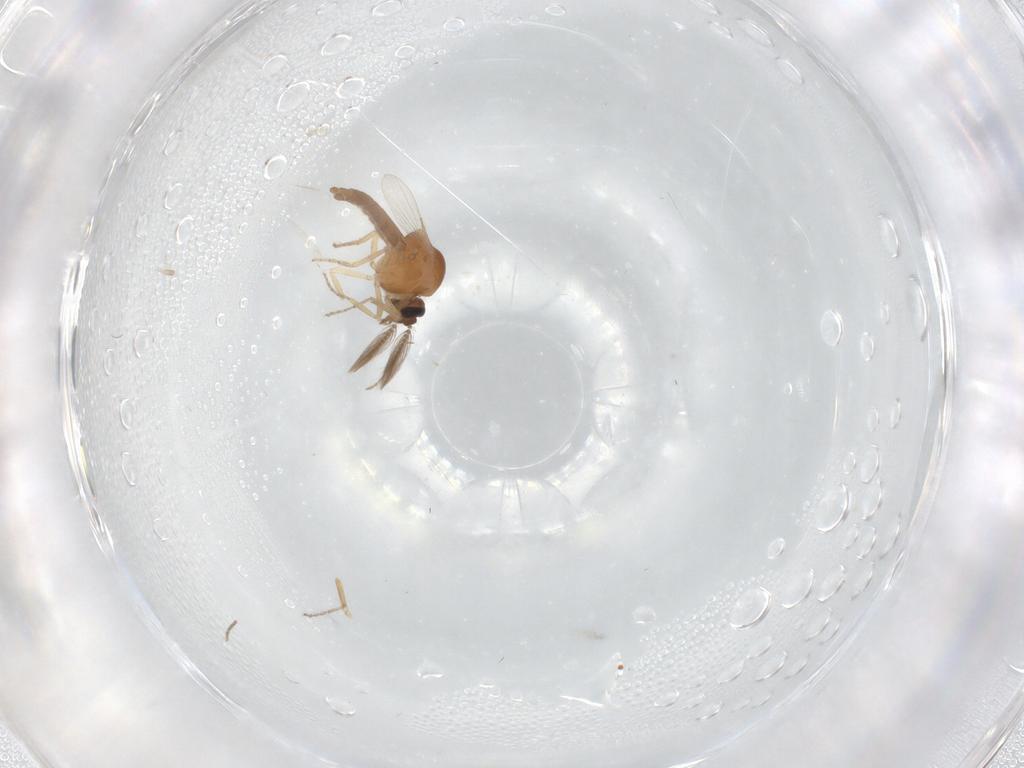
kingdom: Animalia
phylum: Arthropoda
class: Insecta
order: Diptera
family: Ceratopogonidae
